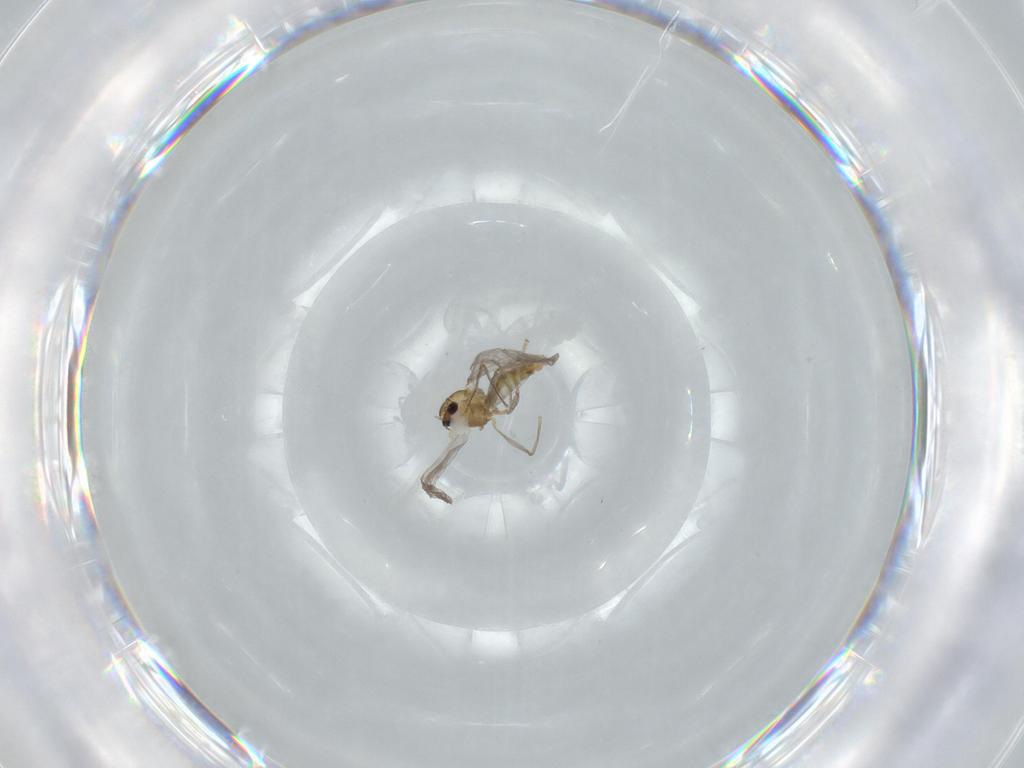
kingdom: Animalia
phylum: Arthropoda
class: Insecta
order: Diptera
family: Chironomidae
